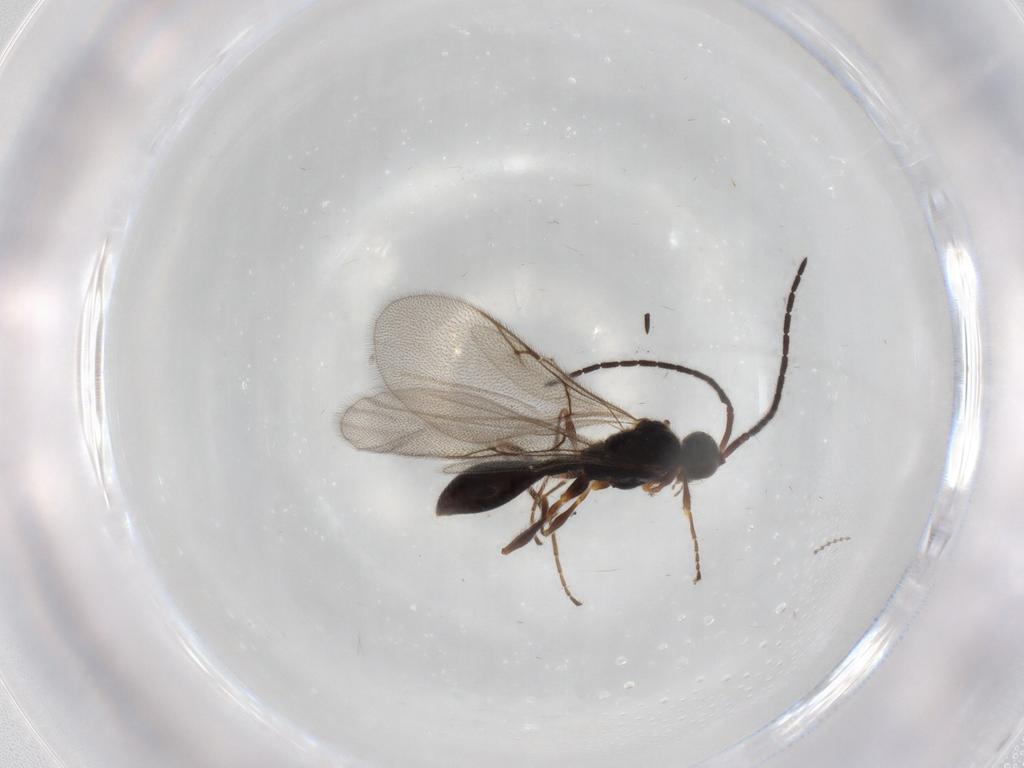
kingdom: Animalia
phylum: Arthropoda
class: Insecta
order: Hymenoptera
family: Diapriidae
